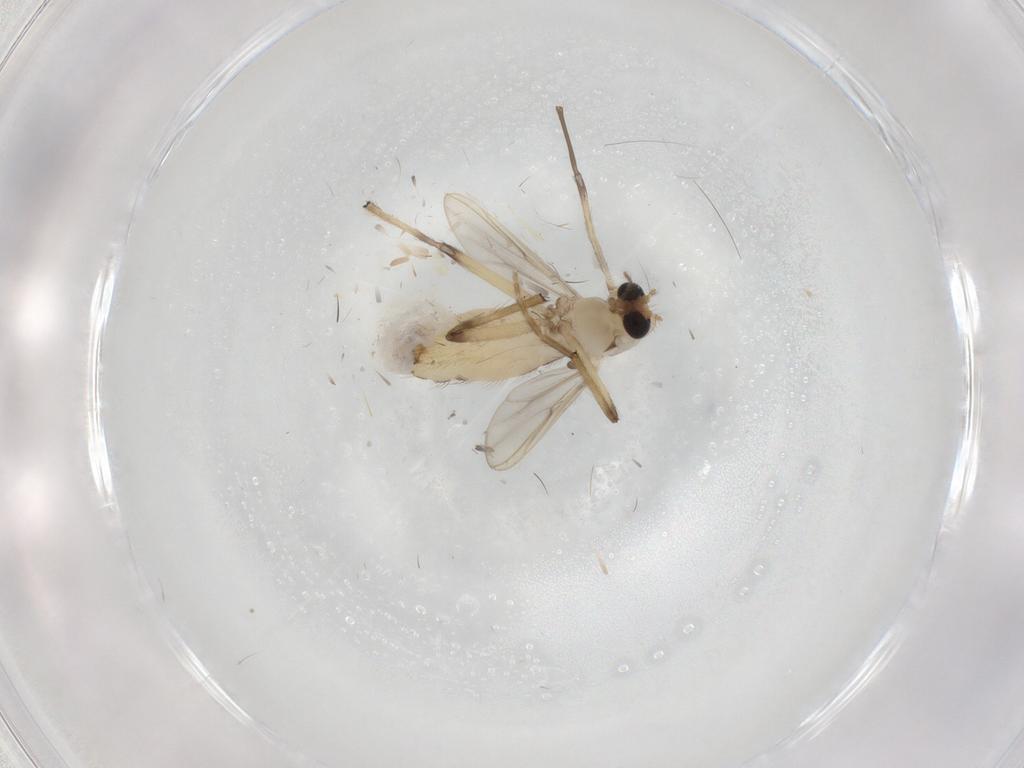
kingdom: Animalia
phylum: Arthropoda
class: Insecta
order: Diptera
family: Chironomidae
